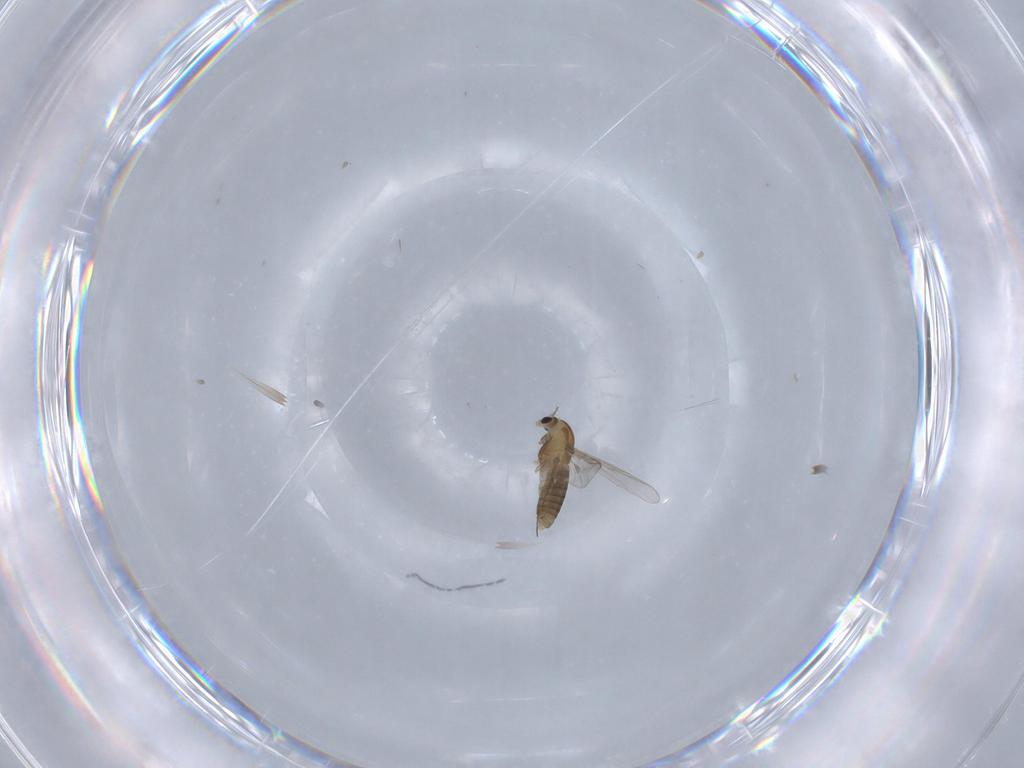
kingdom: Animalia
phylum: Arthropoda
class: Insecta
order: Diptera
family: Chironomidae
